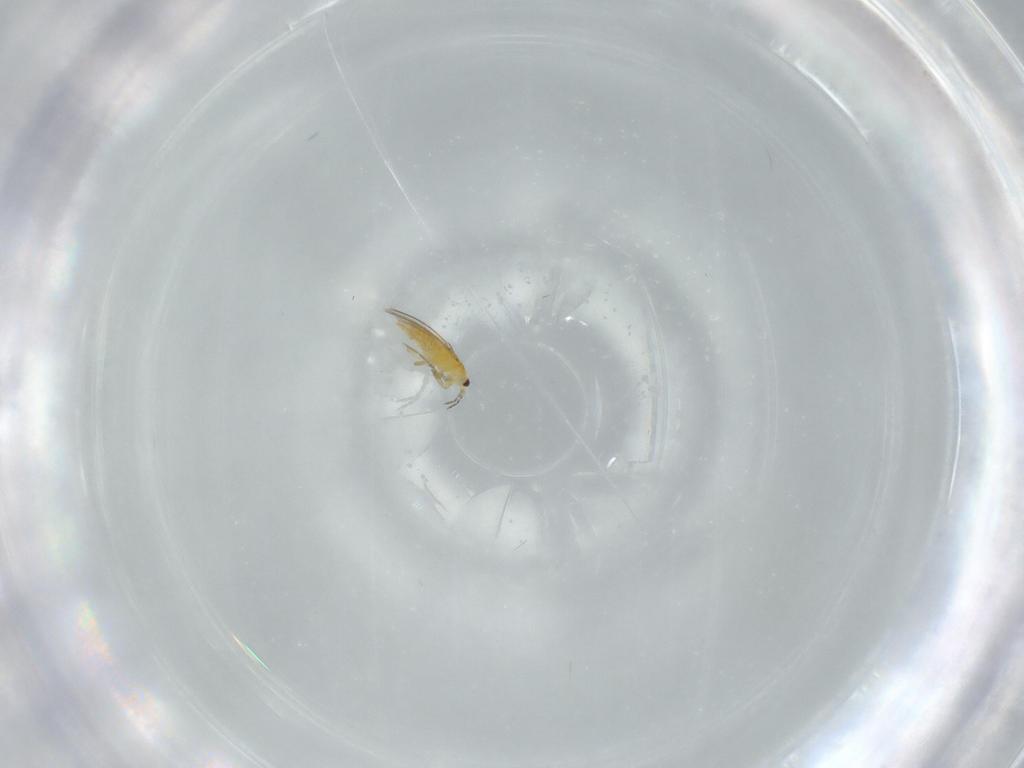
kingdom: Animalia
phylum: Arthropoda
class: Insecta
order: Thysanoptera
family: Thripidae
